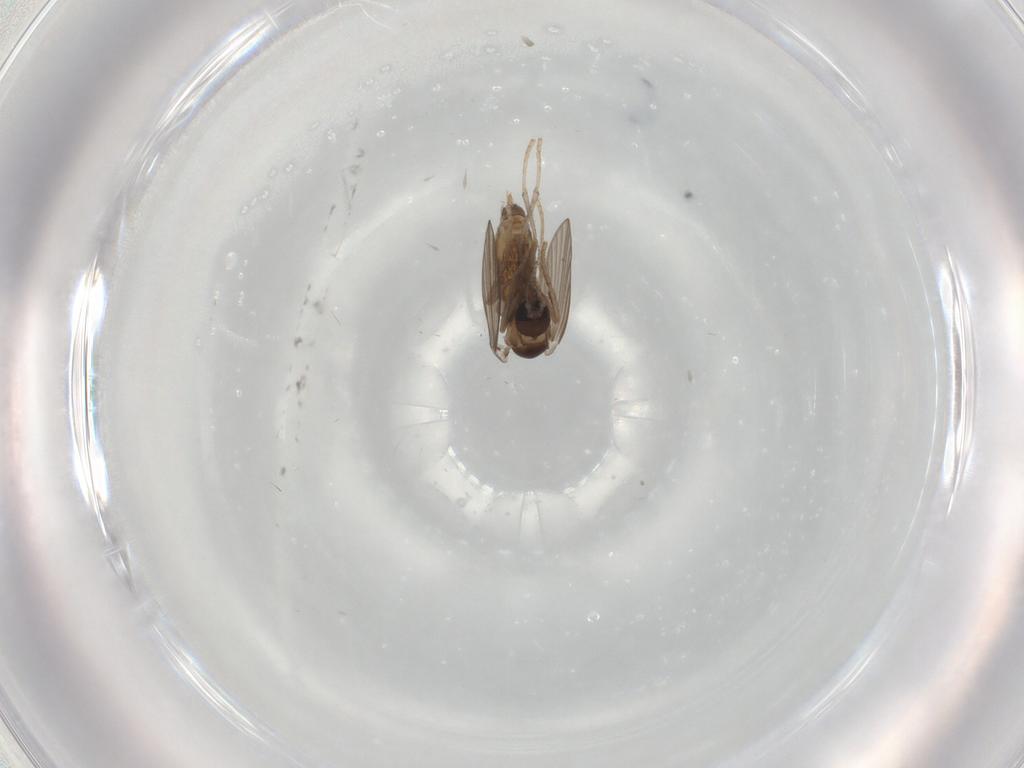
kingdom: Animalia
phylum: Arthropoda
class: Insecta
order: Diptera
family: Psychodidae
